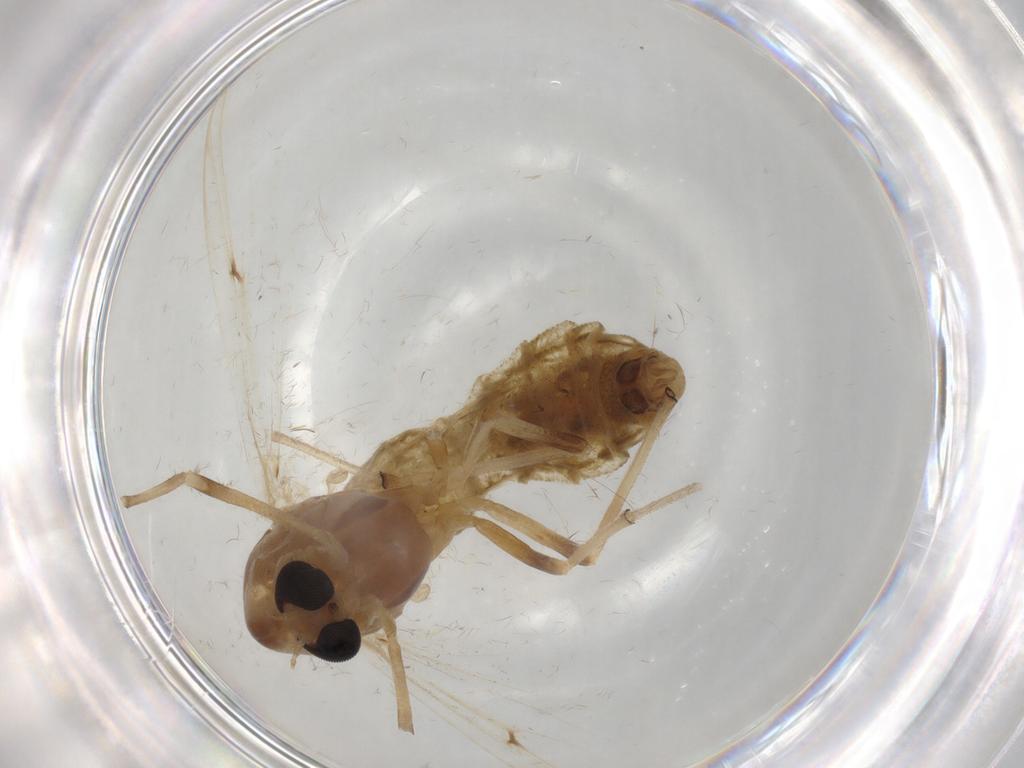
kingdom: Animalia
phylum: Arthropoda
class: Insecta
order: Diptera
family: Chironomidae
